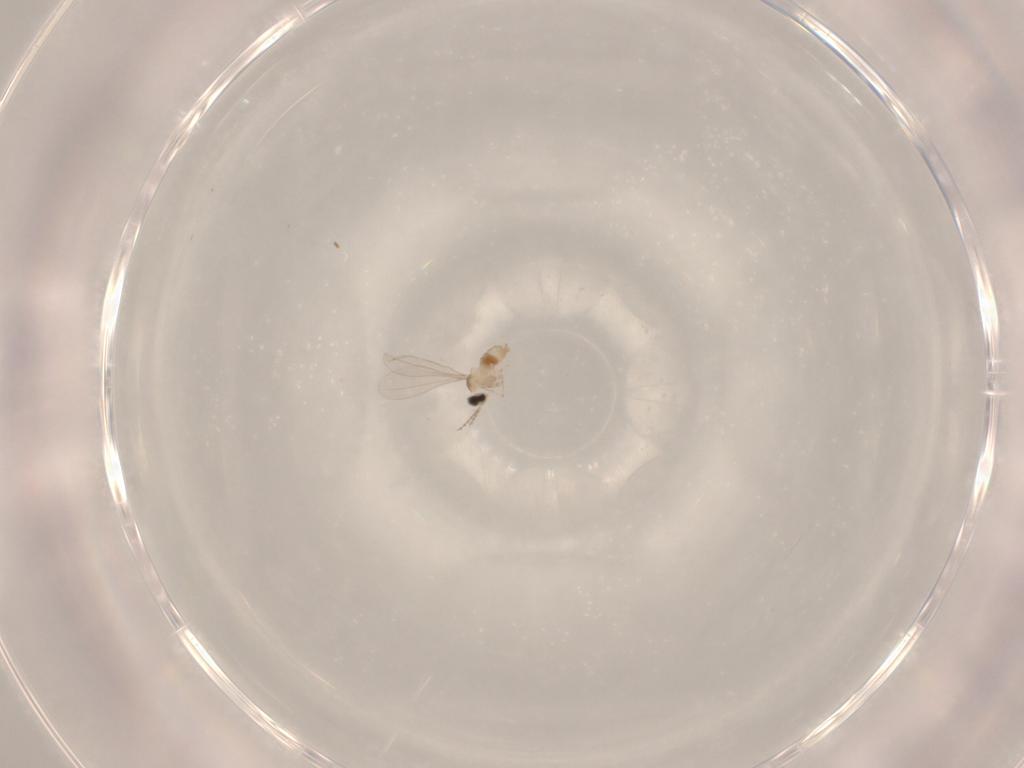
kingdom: Animalia
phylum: Arthropoda
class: Insecta
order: Diptera
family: Cecidomyiidae
